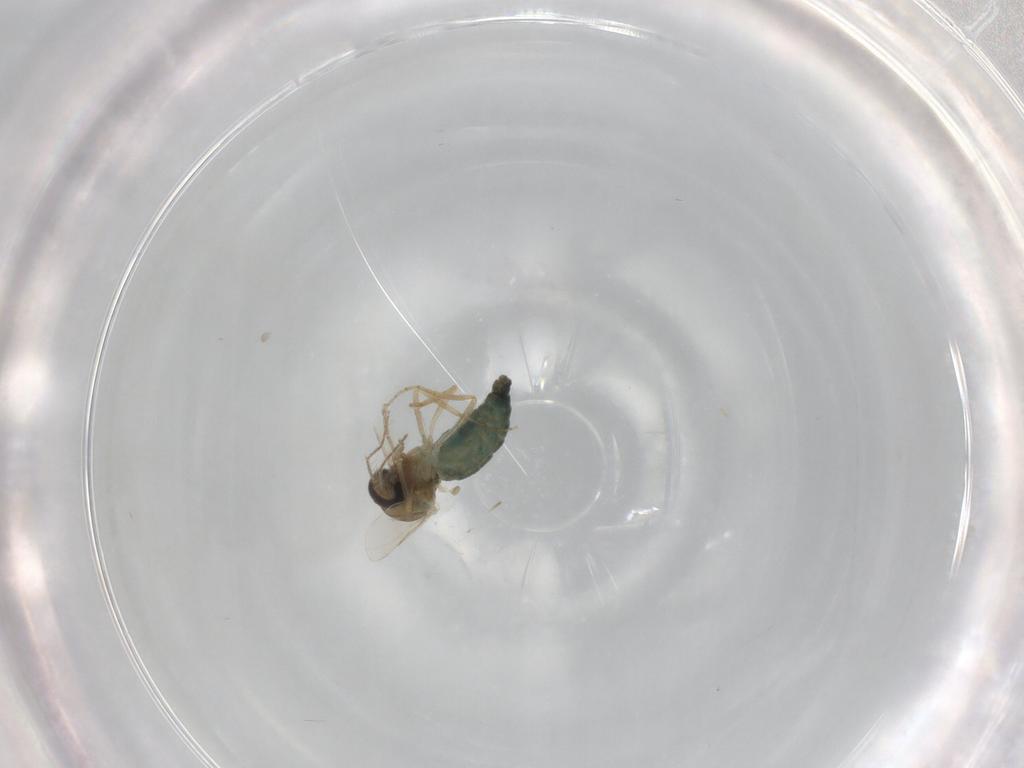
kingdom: Animalia
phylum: Arthropoda
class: Insecta
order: Diptera
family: Ceratopogonidae
